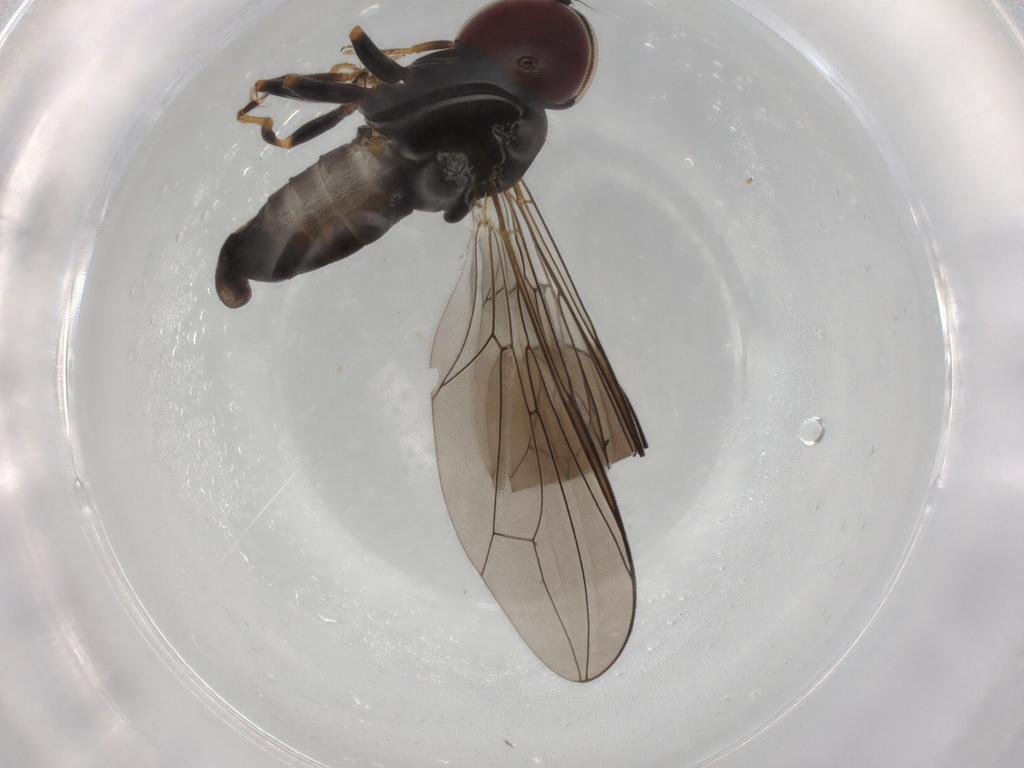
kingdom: Animalia
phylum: Arthropoda
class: Insecta
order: Diptera
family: Pipunculidae
